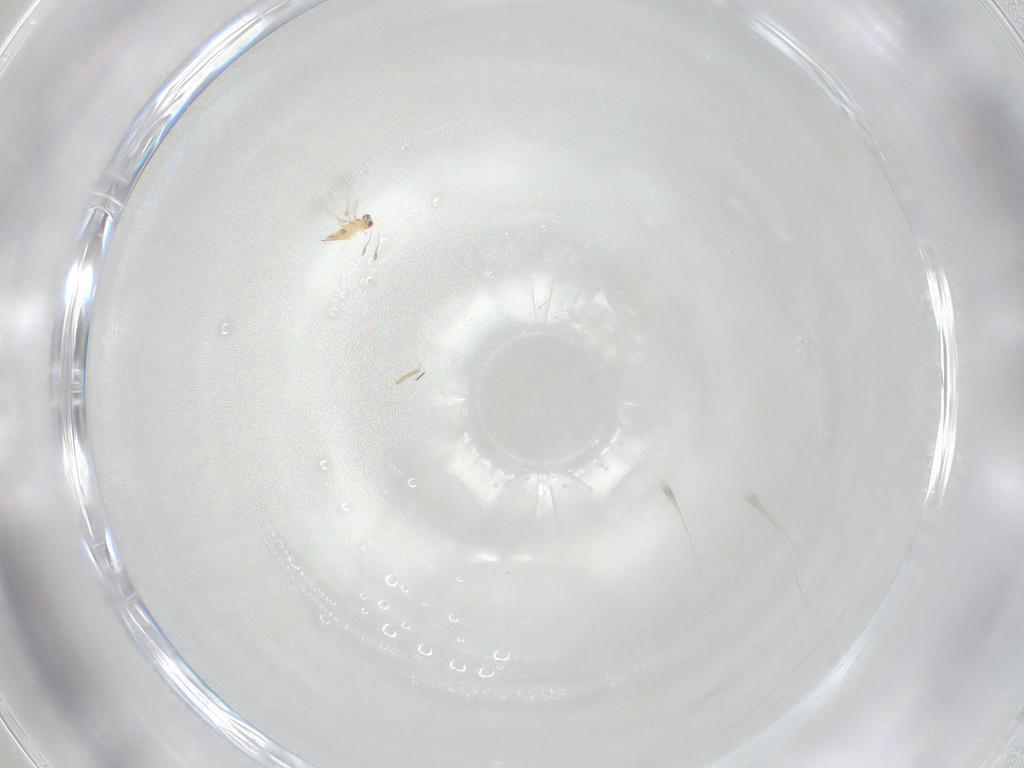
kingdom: Animalia
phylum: Arthropoda
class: Insecta
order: Hymenoptera
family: Mymaridae
